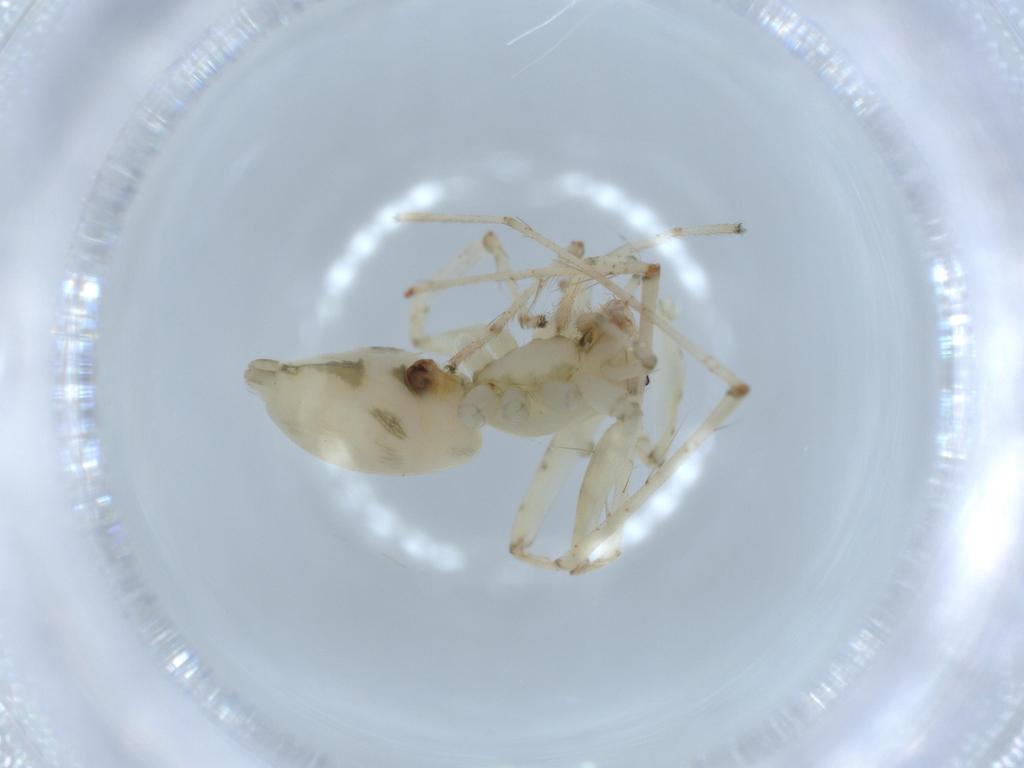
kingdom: Animalia
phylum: Arthropoda
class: Arachnida
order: Araneae
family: Anyphaenidae
